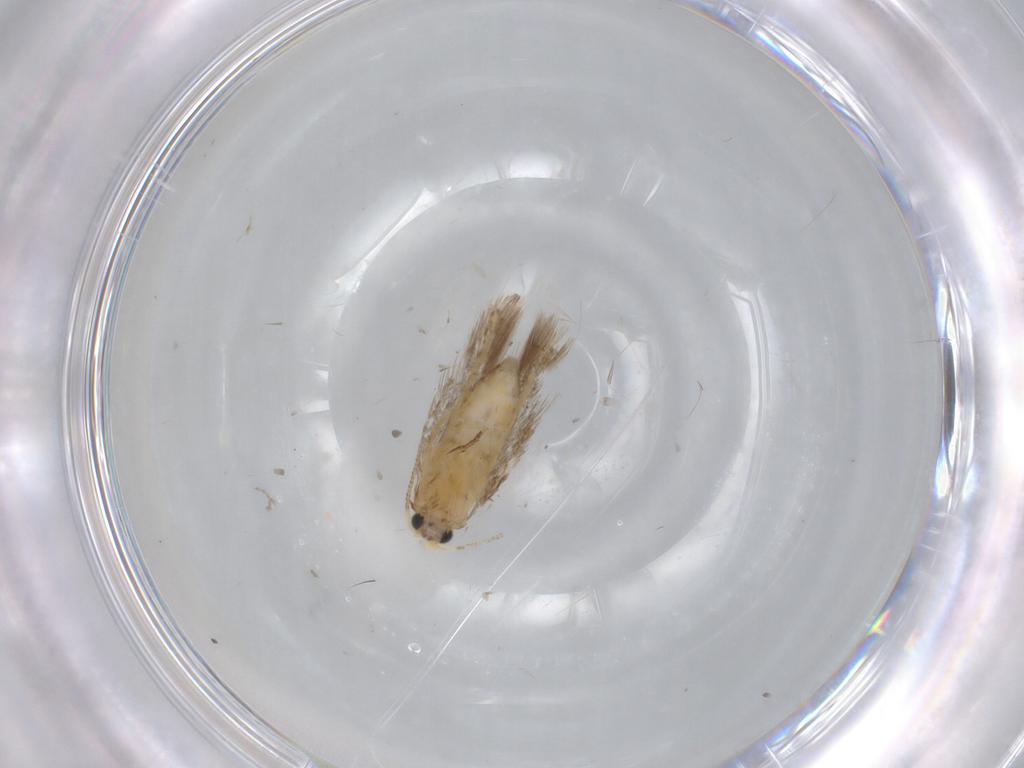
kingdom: Animalia
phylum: Arthropoda
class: Insecta
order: Lepidoptera
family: Nepticulidae
